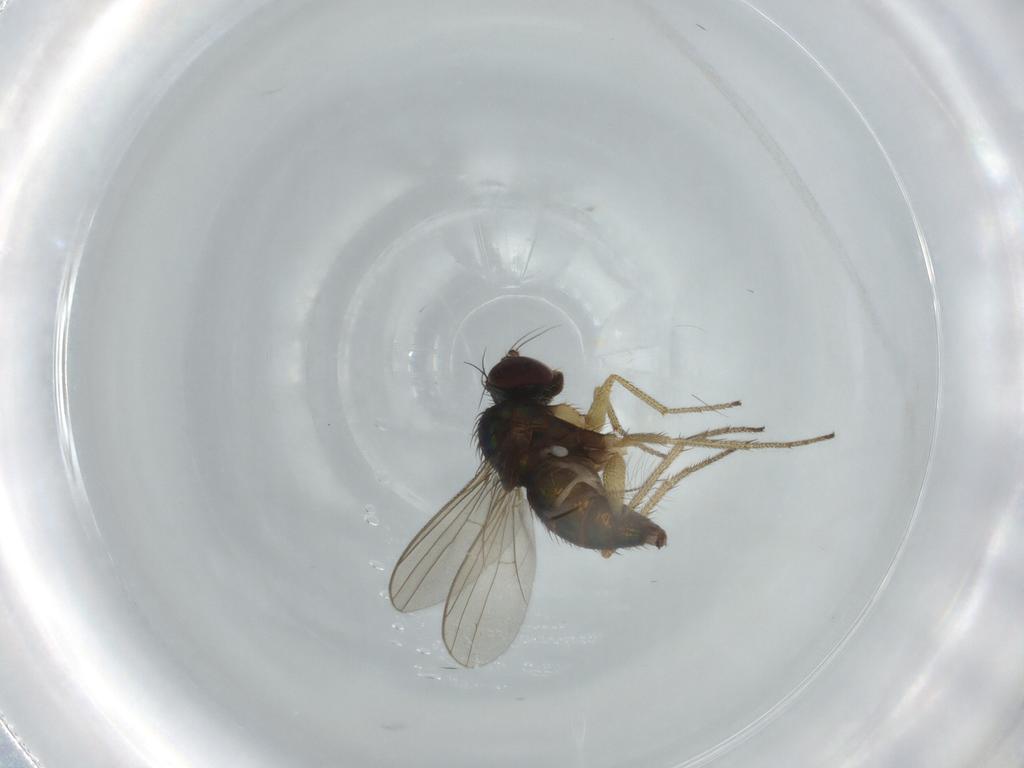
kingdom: Animalia
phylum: Arthropoda
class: Insecta
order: Diptera
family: Dolichopodidae
